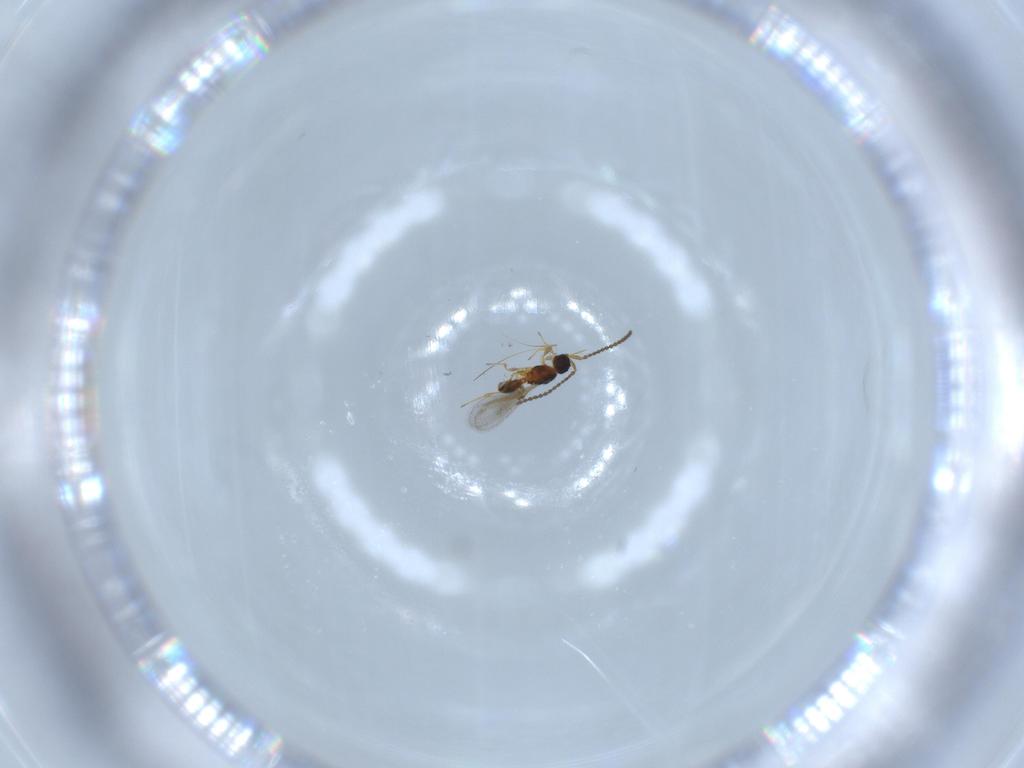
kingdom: Animalia
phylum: Arthropoda
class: Insecta
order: Hymenoptera
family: Diapriidae
